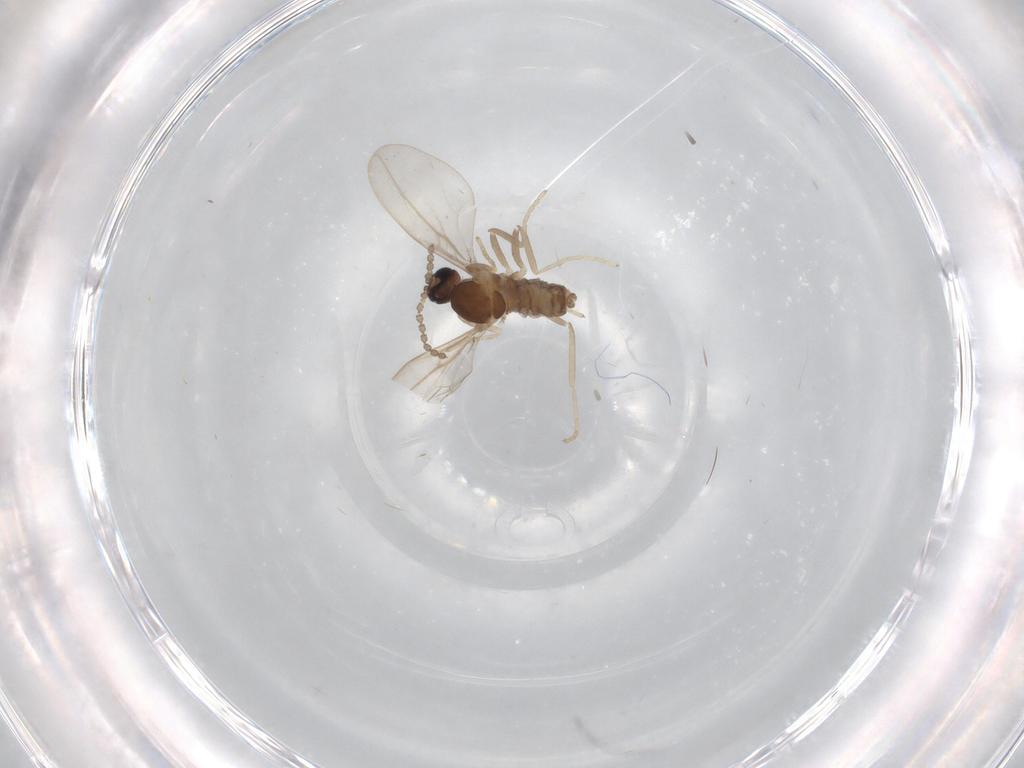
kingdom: Animalia
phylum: Arthropoda
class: Insecta
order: Diptera
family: Cecidomyiidae
